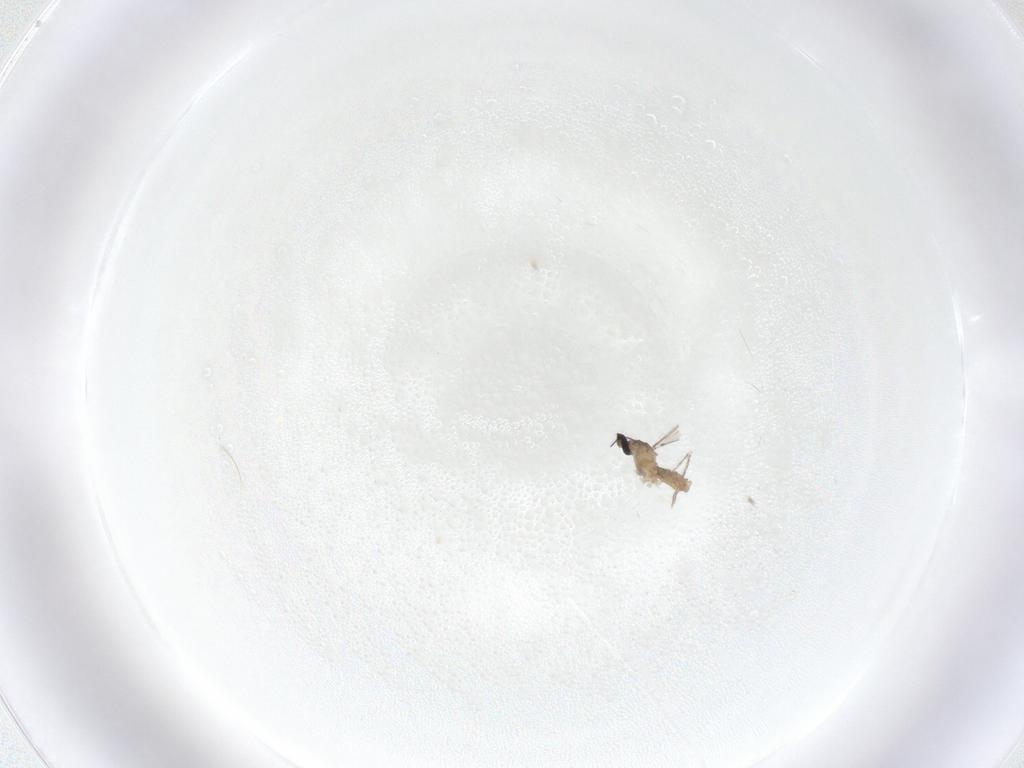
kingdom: Animalia
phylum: Arthropoda
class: Insecta
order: Diptera
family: Cecidomyiidae
